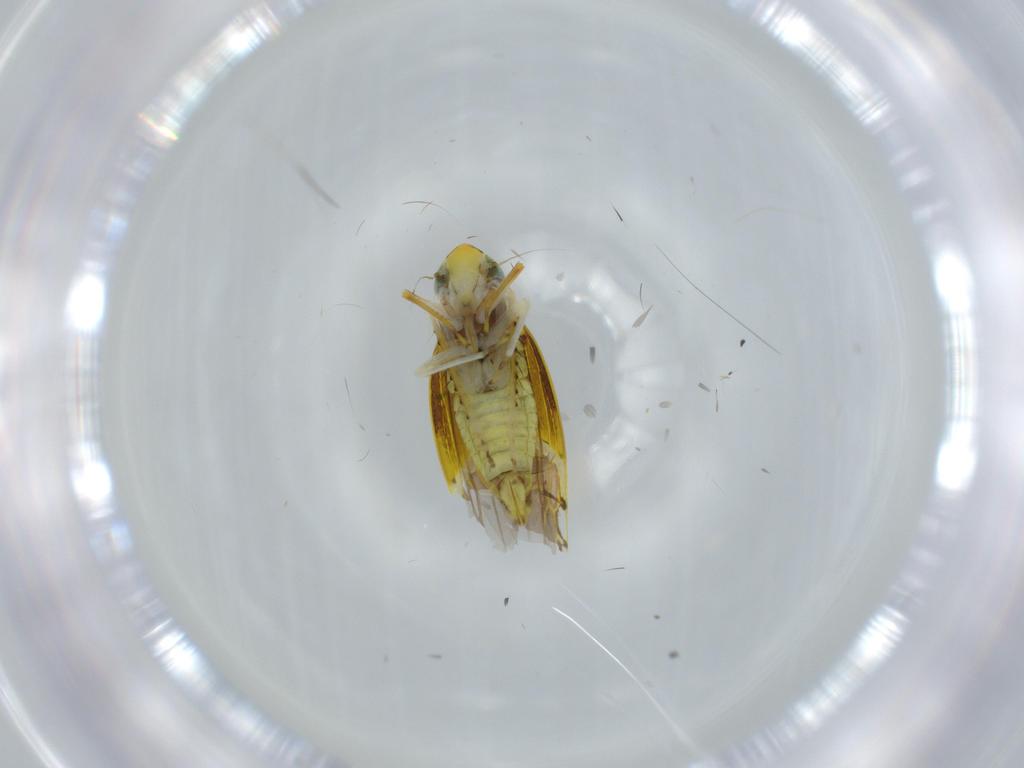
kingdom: Animalia
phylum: Arthropoda
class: Insecta
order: Hemiptera
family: Cicadellidae
